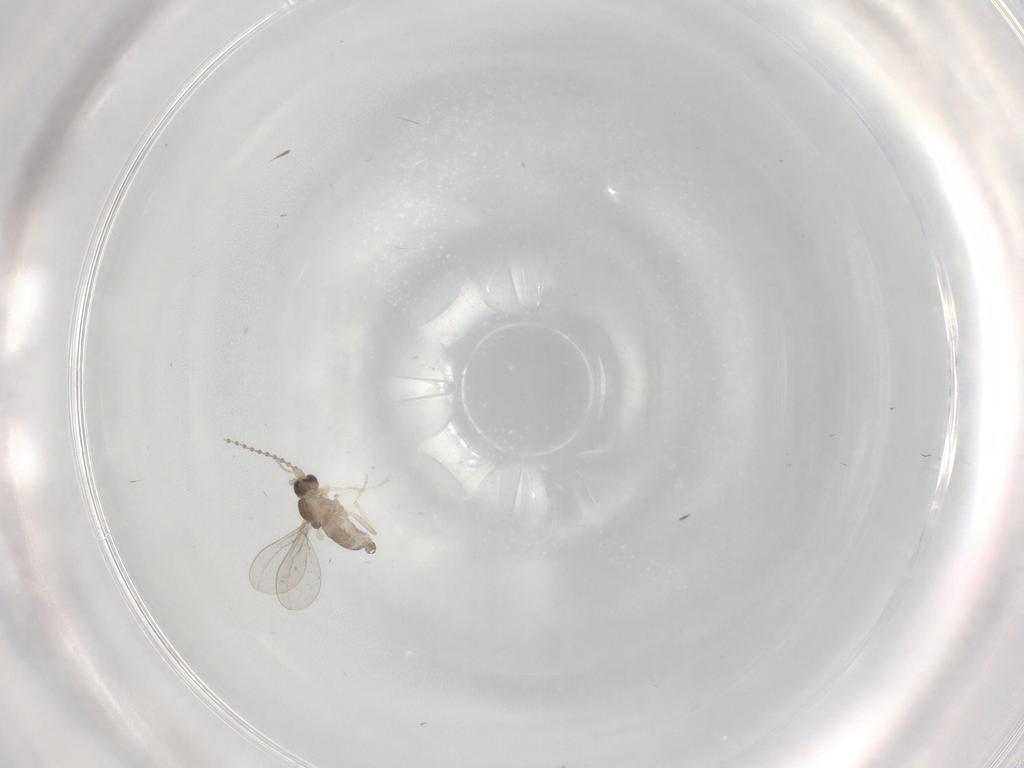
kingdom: Animalia
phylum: Arthropoda
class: Insecta
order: Diptera
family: Cecidomyiidae
